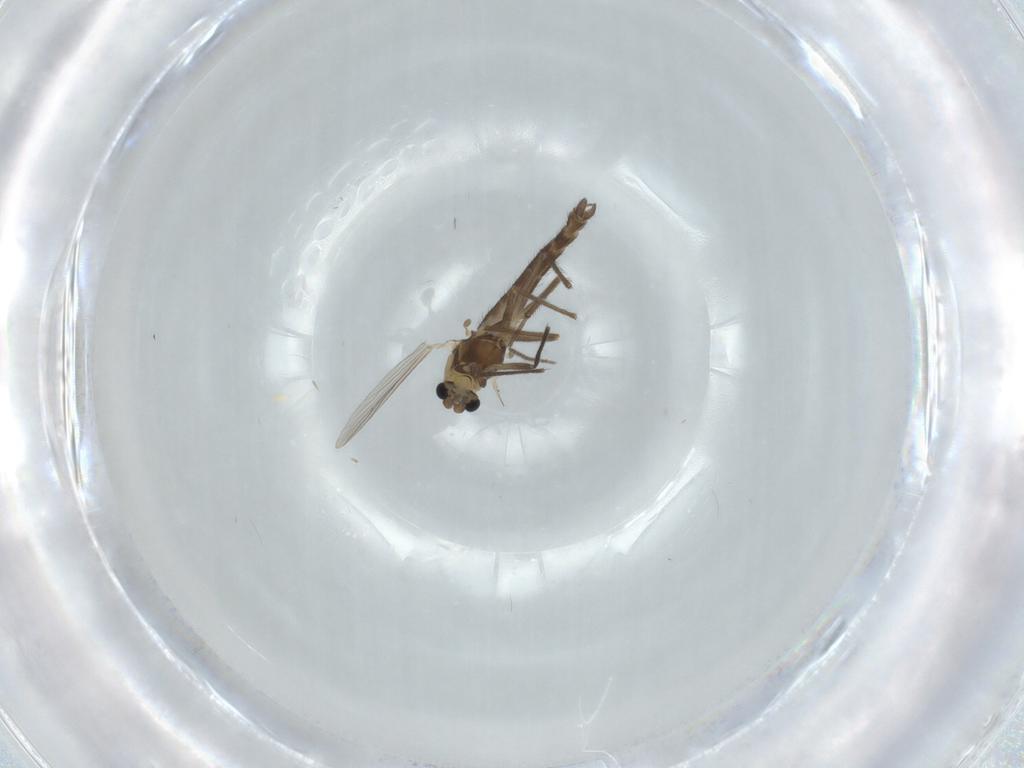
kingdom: Animalia
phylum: Arthropoda
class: Insecta
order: Diptera
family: Chironomidae
